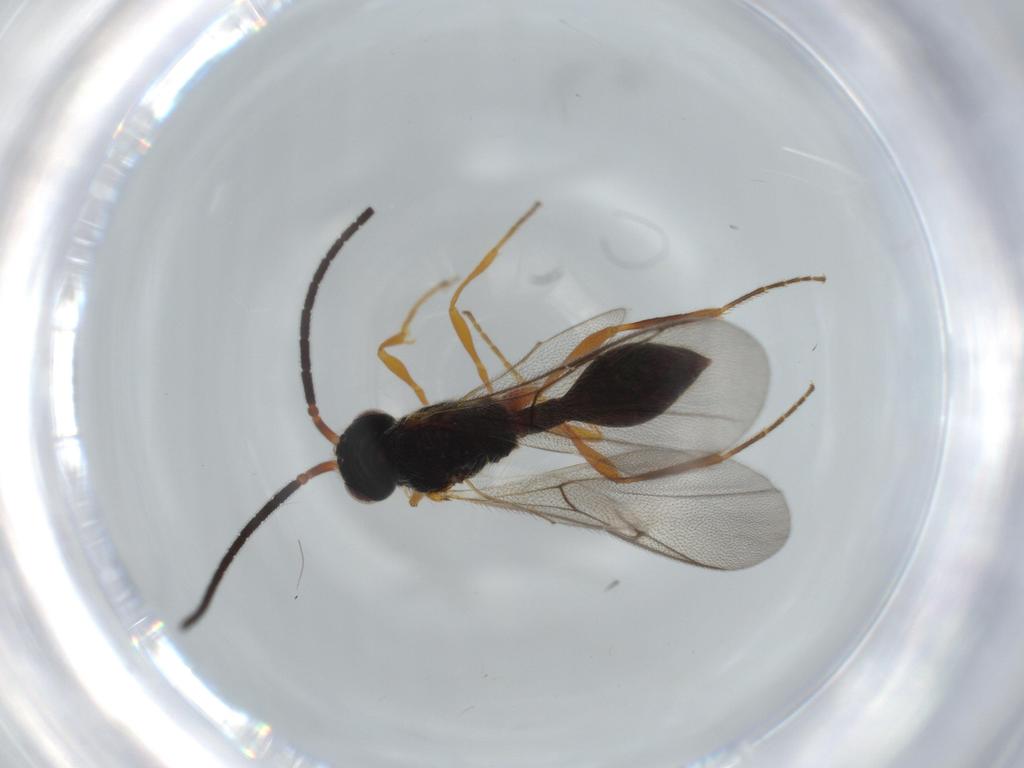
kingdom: Animalia
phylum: Arthropoda
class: Insecta
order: Hymenoptera
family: Diapriidae
